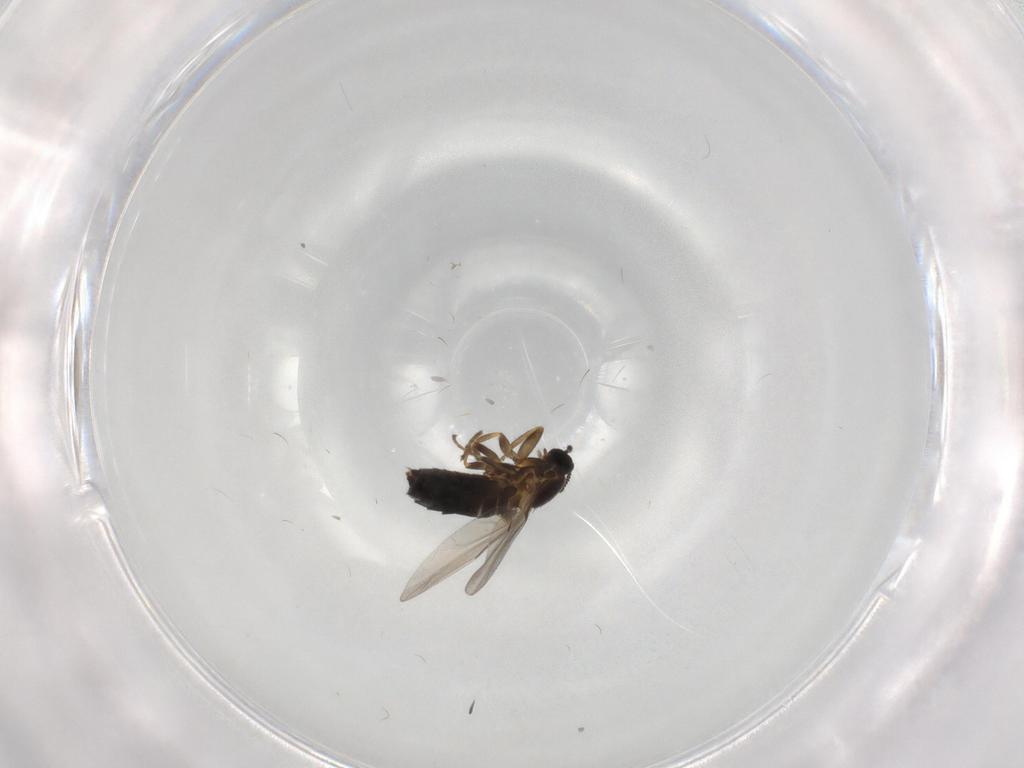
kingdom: Animalia
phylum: Arthropoda
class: Insecta
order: Diptera
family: Scatopsidae
